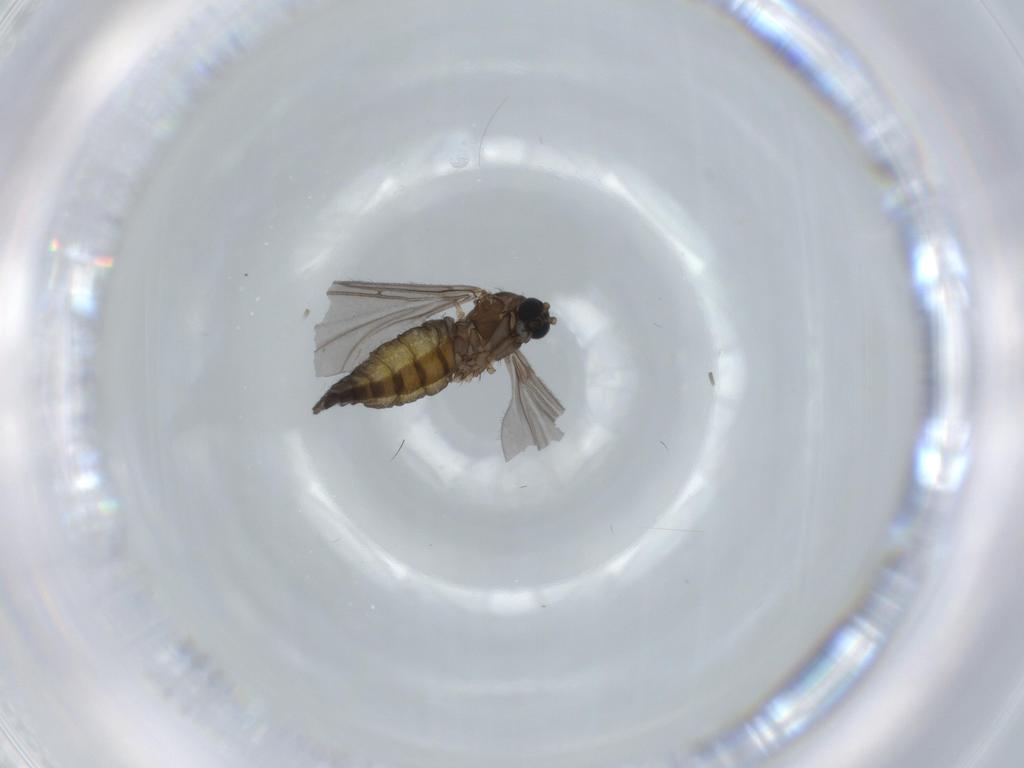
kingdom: Animalia
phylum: Arthropoda
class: Insecta
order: Diptera
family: Sciaridae
